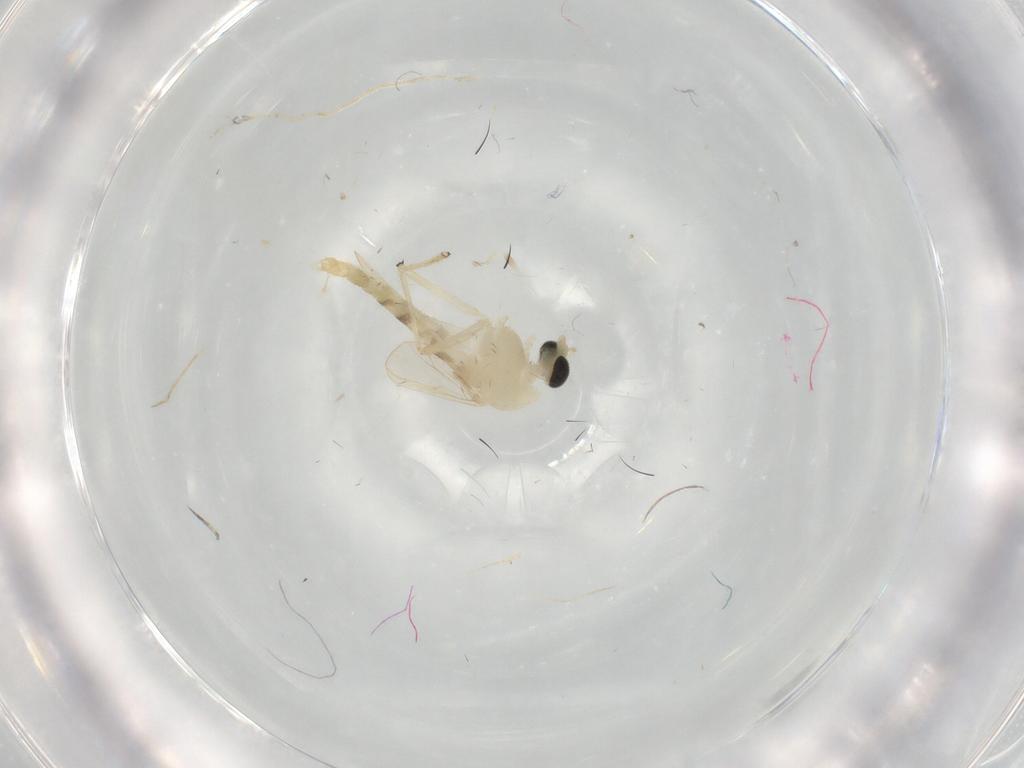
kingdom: Animalia
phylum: Arthropoda
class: Insecta
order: Diptera
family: Chironomidae
